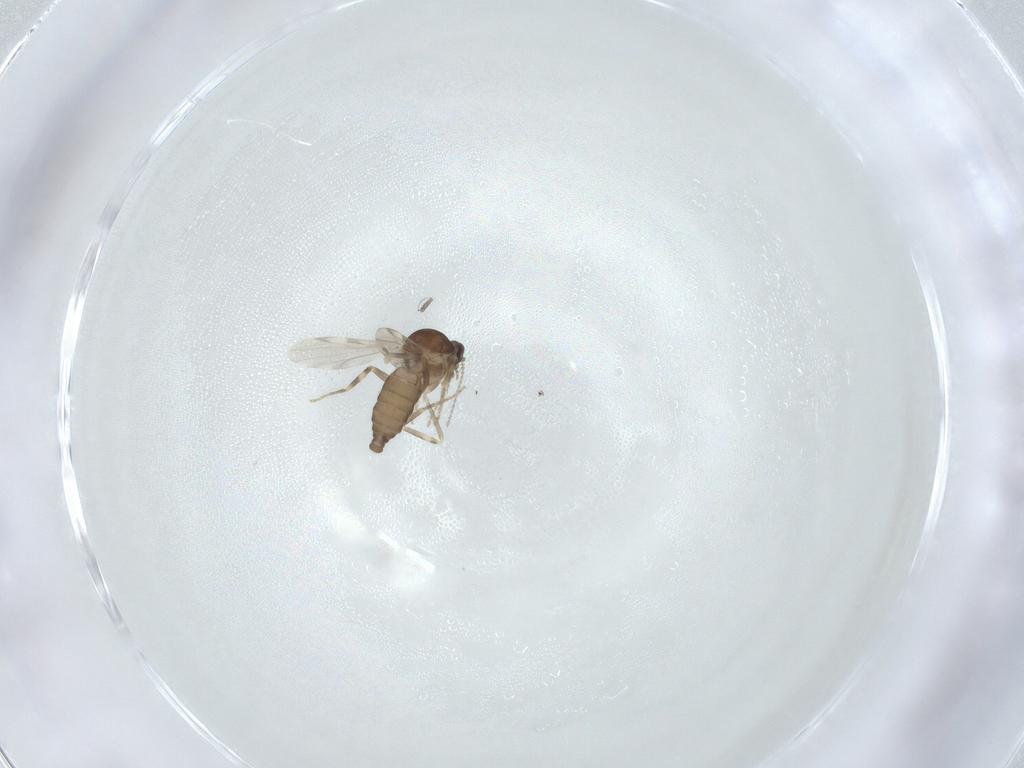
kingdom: Animalia
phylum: Arthropoda
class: Insecta
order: Diptera
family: Ceratopogonidae
